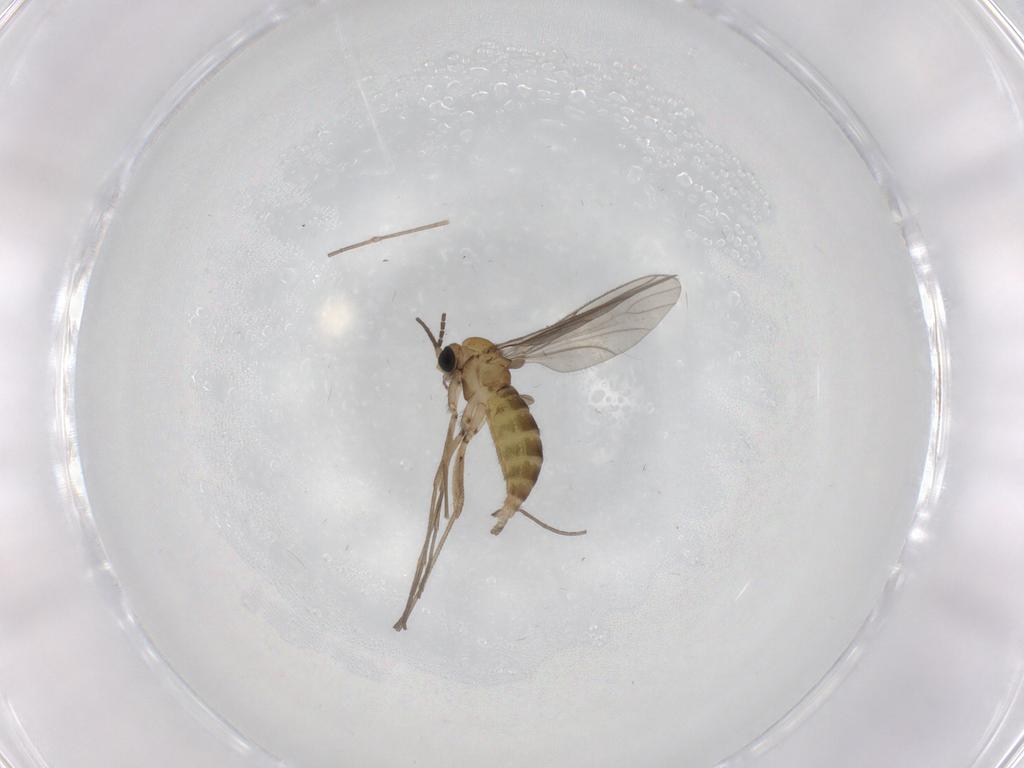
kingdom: Animalia
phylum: Arthropoda
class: Insecta
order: Diptera
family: Sciaridae
